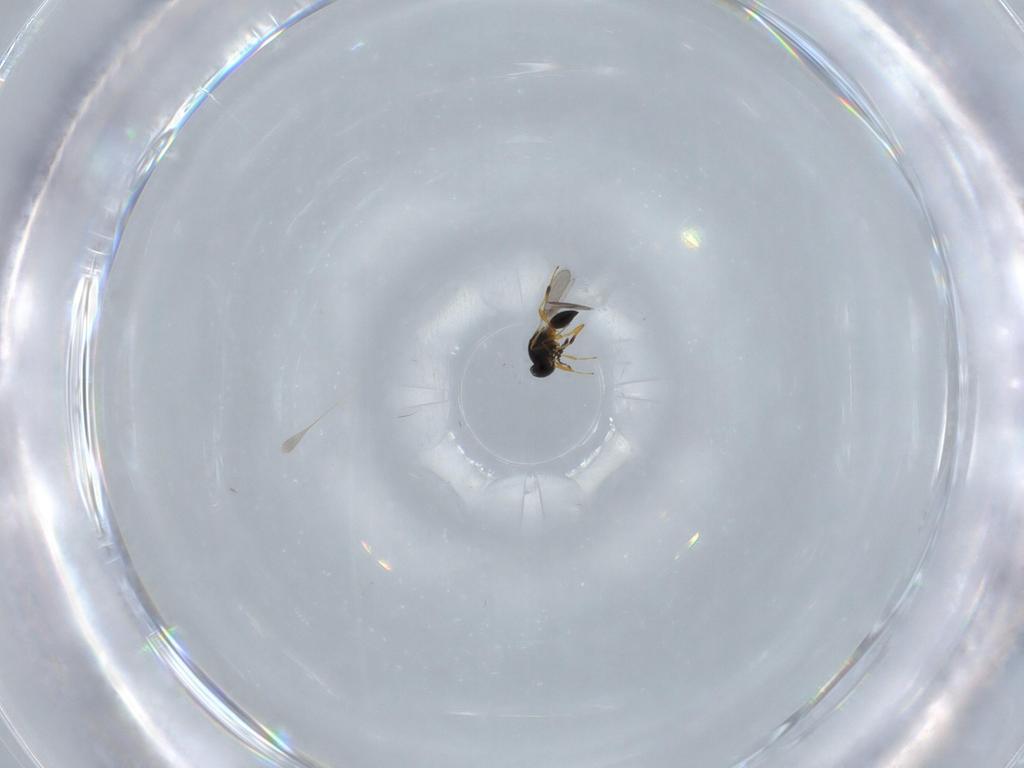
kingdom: Animalia
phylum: Arthropoda
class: Insecta
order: Hymenoptera
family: Platygastridae
